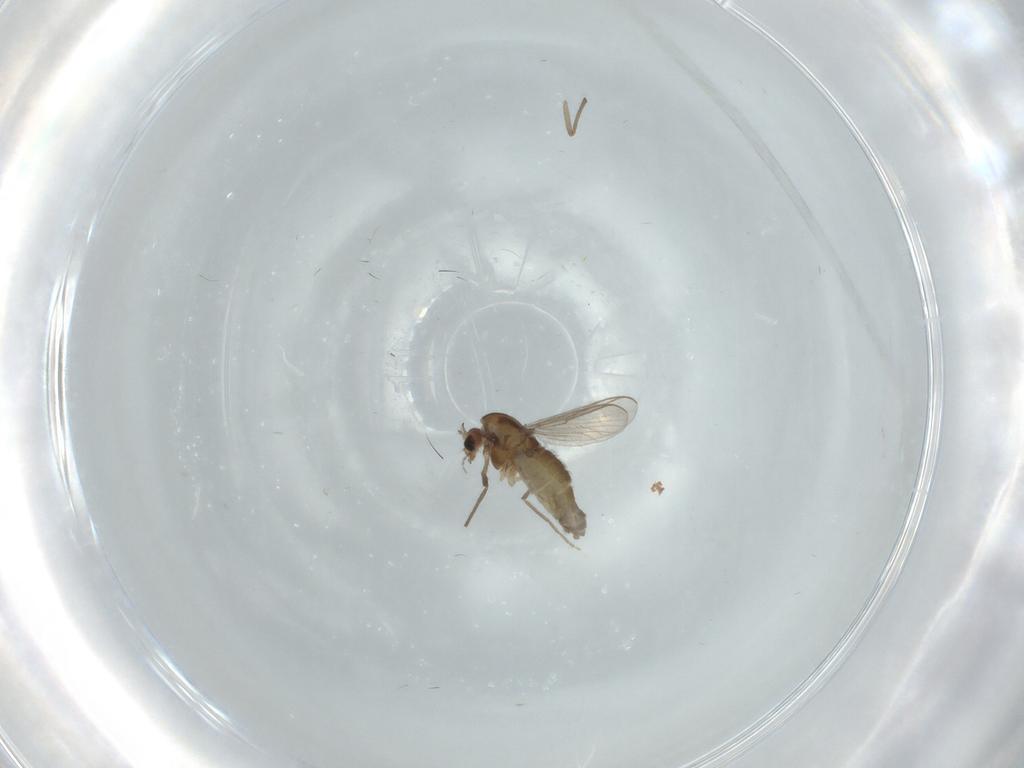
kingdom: Animalia
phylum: Arthropoda
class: Insecta
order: Diptera
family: Chironomidae
